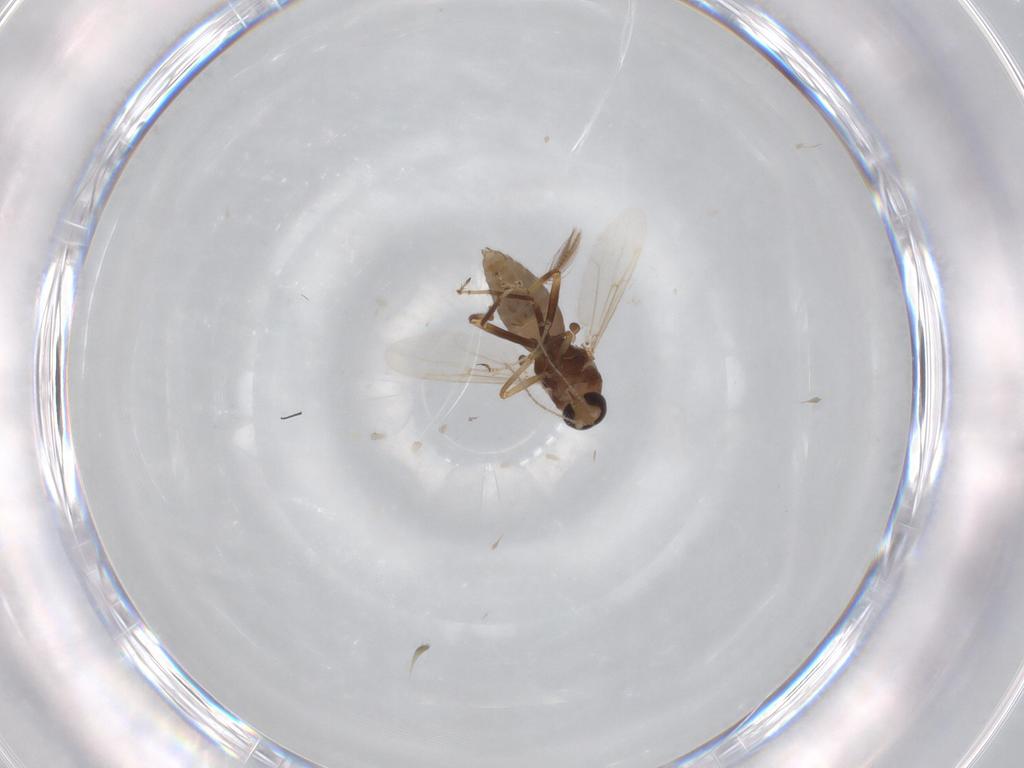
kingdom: Animalia
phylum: Arthropoda
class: Insecta
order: Diptera
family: Ceratopogonidae
